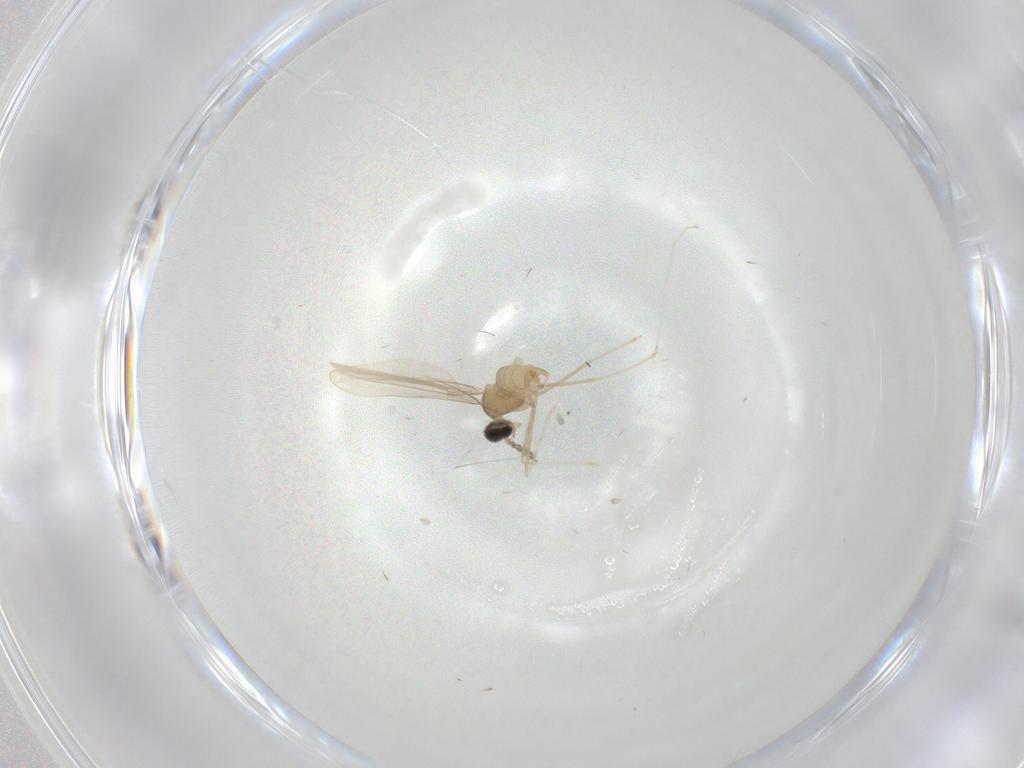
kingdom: Animalia
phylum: Arthropoda
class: Insecta
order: Diptera
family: Cecidomyiidae
